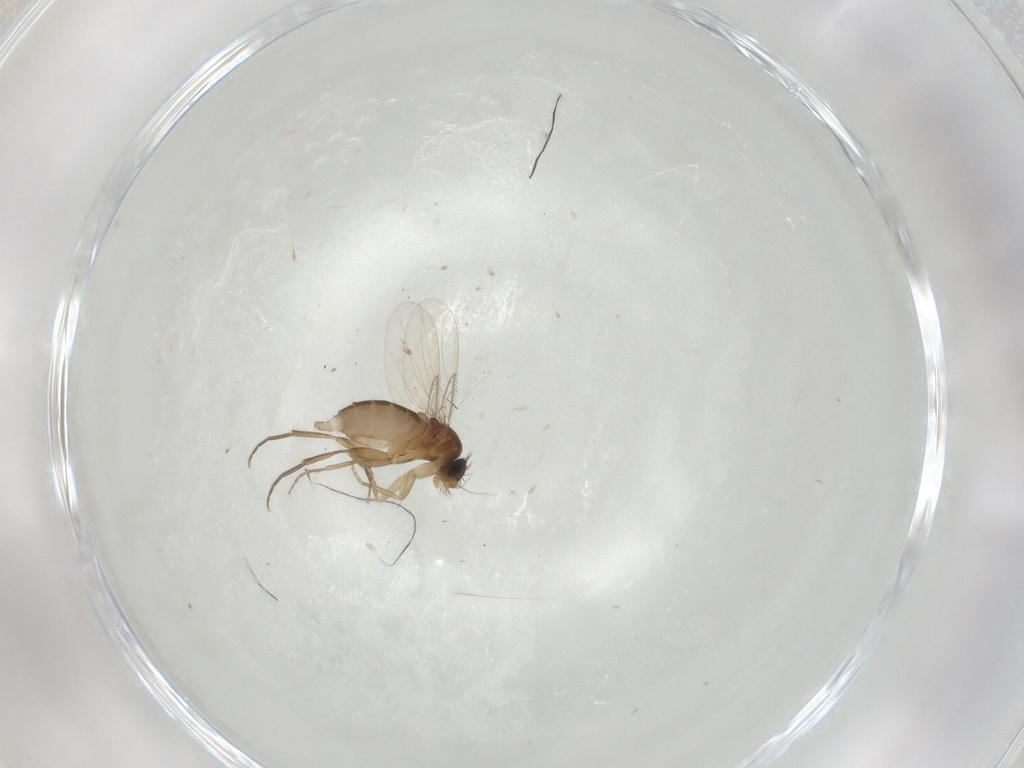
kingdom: Animalia
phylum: Arthropoda
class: Insecta
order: Diptera
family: Phoridae
